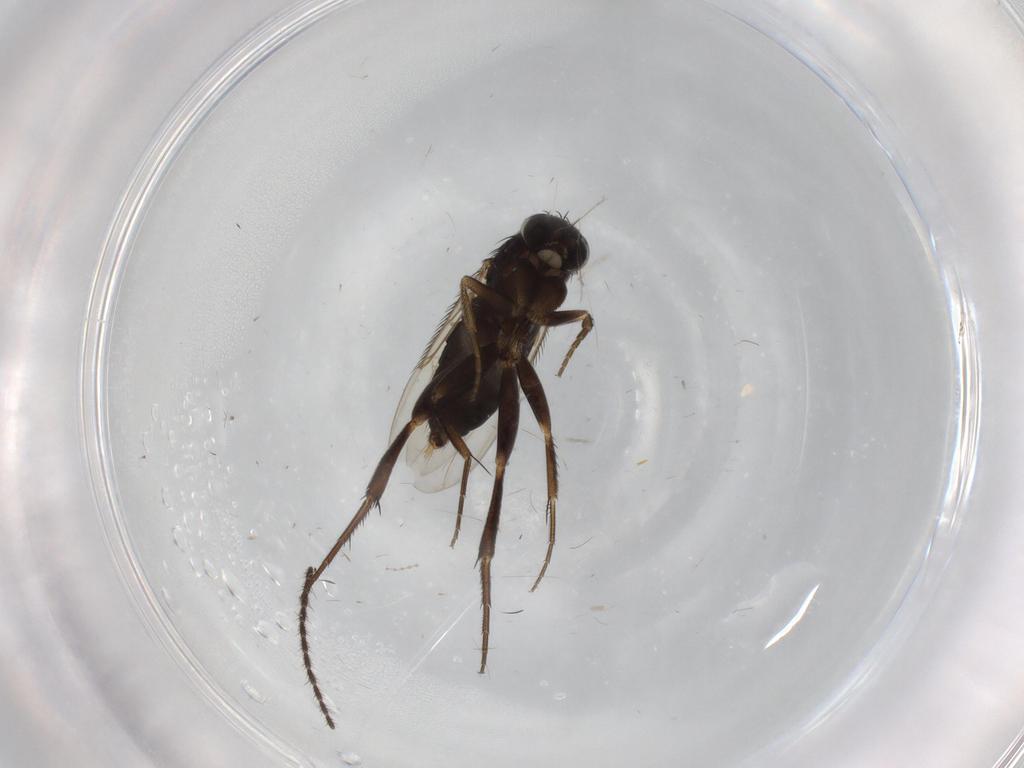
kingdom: Animalia
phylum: Arthropoda
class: Insecta
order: Diptera
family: Phoridae
